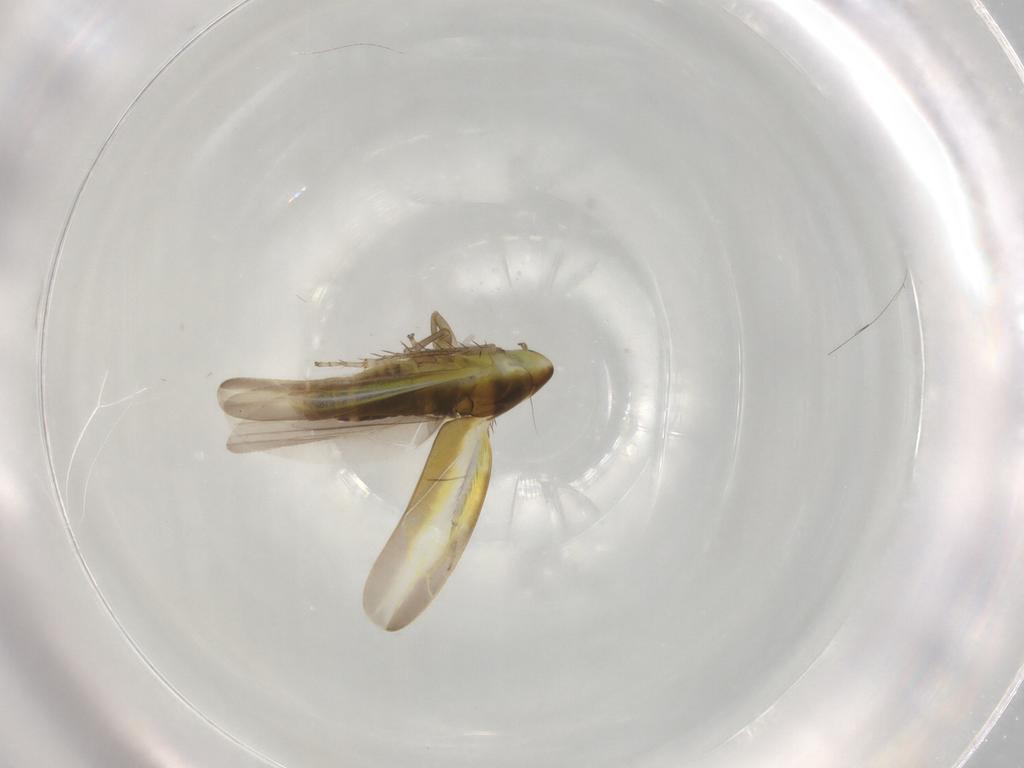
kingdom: Animalia
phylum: Arthropoda
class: Insecta
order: Hemiptera
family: Cicadellidae
